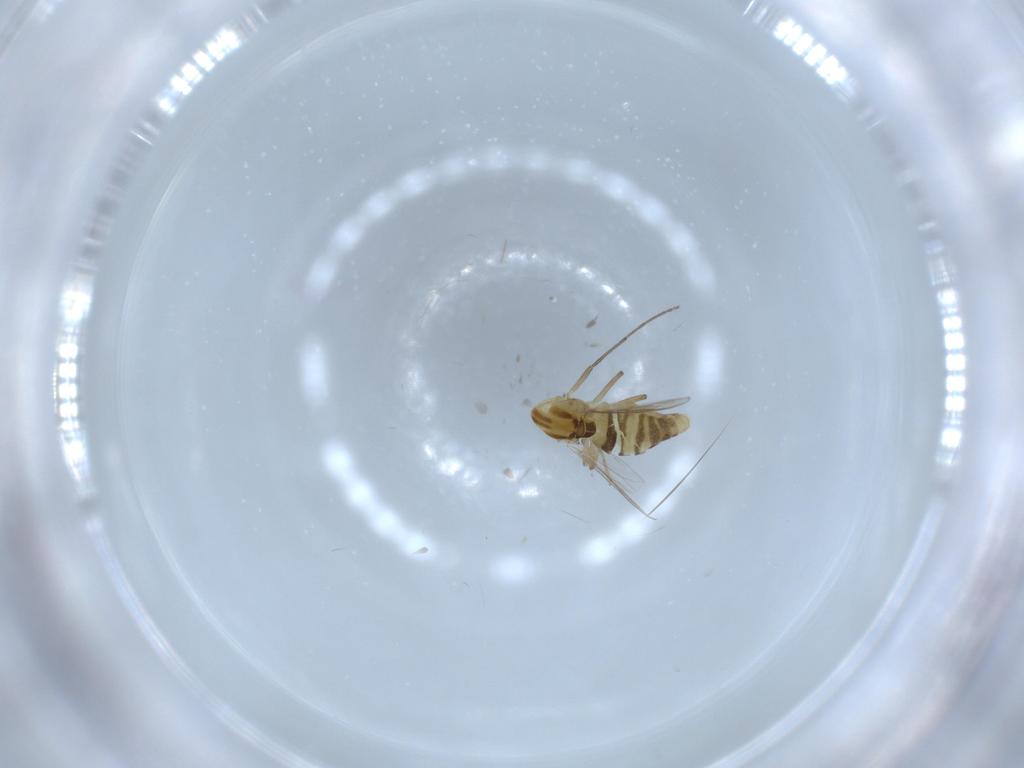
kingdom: Animalia
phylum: Arthropoda
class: Insecta
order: Diptera
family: Chironomidae
